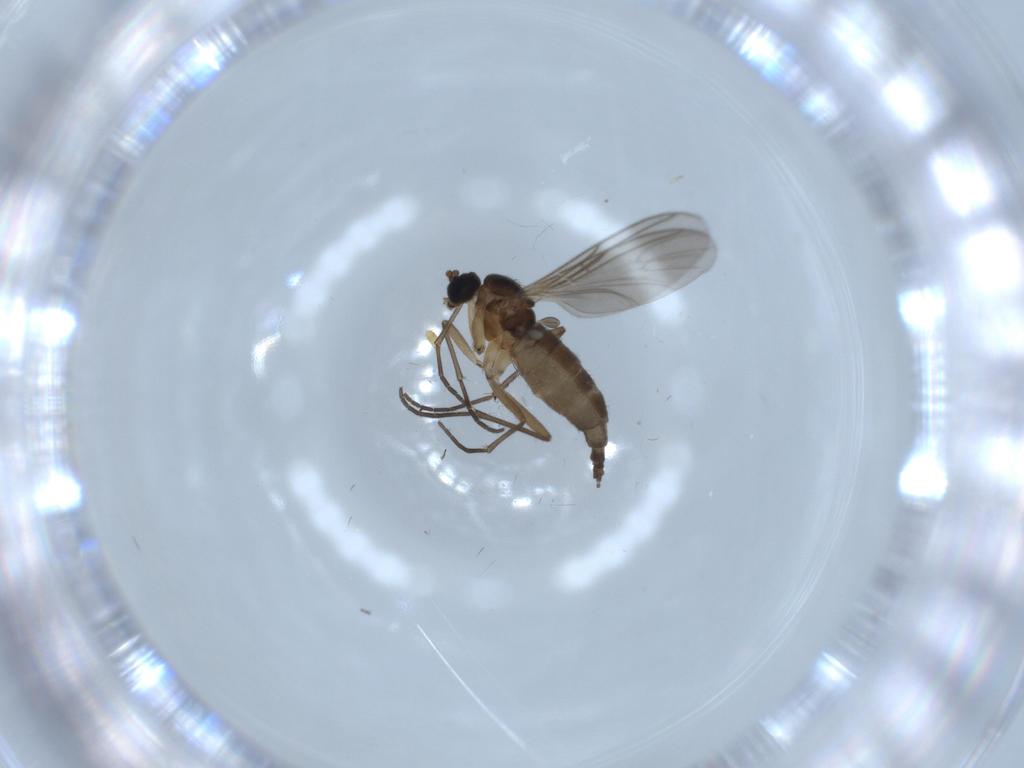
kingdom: Animalia
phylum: Arthropoda
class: Insecta
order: Diptera
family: Sciaridae
